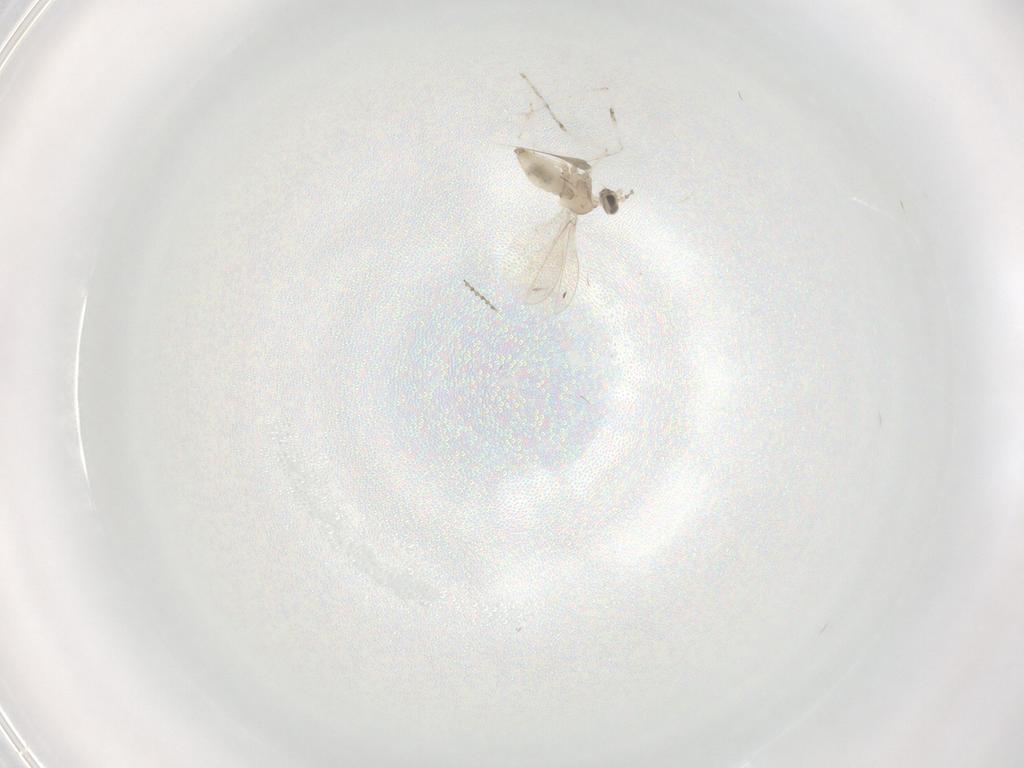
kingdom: Animalia
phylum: Arthropoda
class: Insecta
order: Diptera
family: Cecidomyiidae
